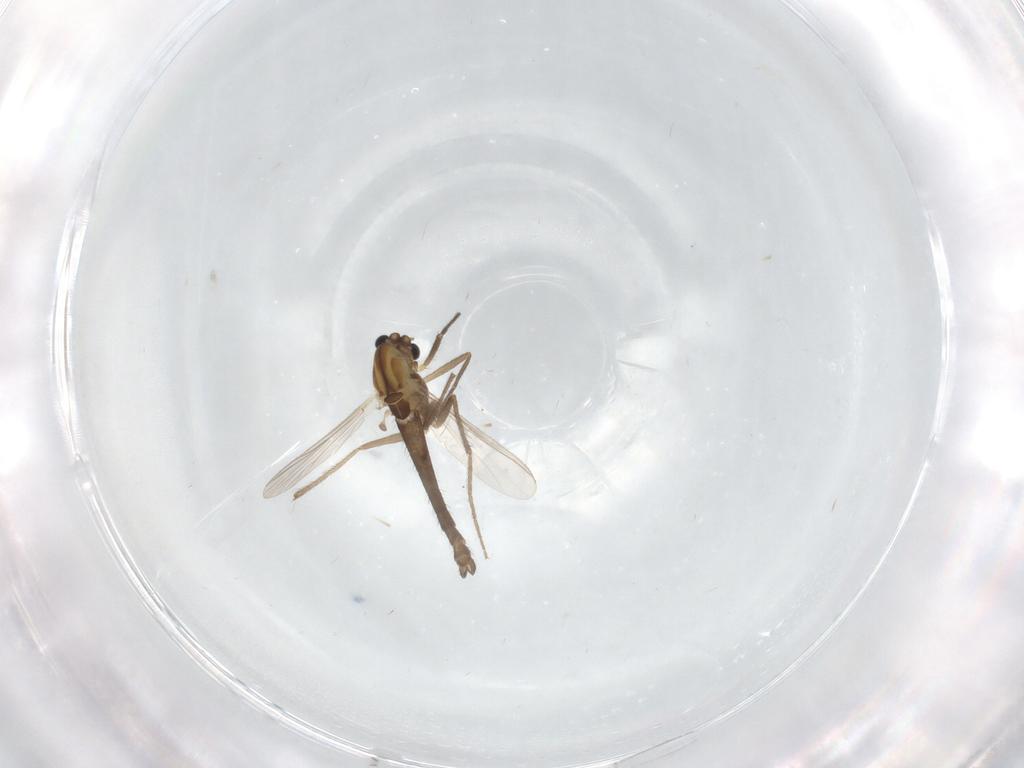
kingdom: Animalia
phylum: Arthropoda
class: Insecta
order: Diptera
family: Chironomidae
